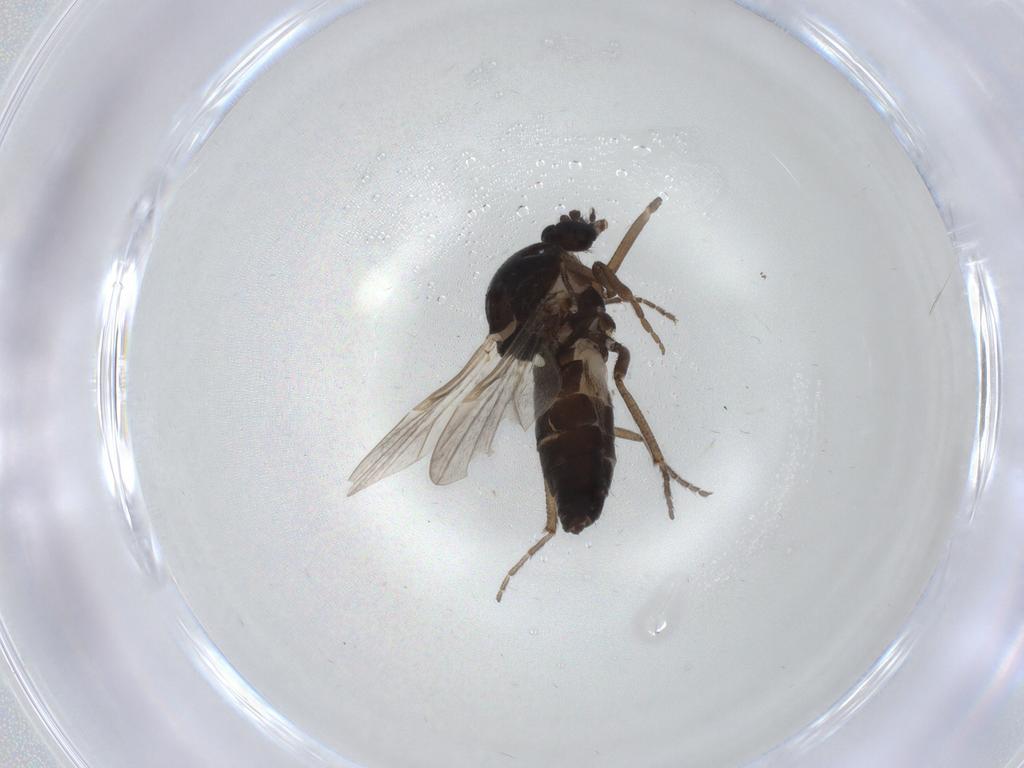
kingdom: Animalia
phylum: Arthropoda
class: Insecta
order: Diptera
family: Ceratopogonidae
